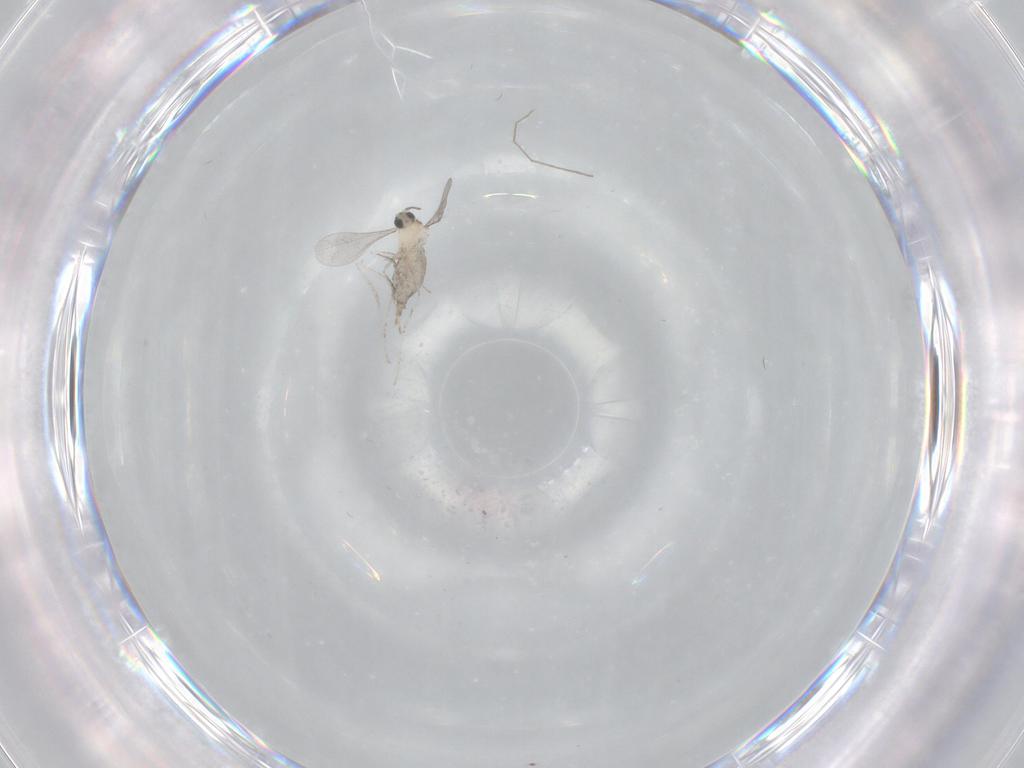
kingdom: Animalia
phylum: Arthropoda
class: Insecta
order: Diptera
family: Cecidomyiidae
